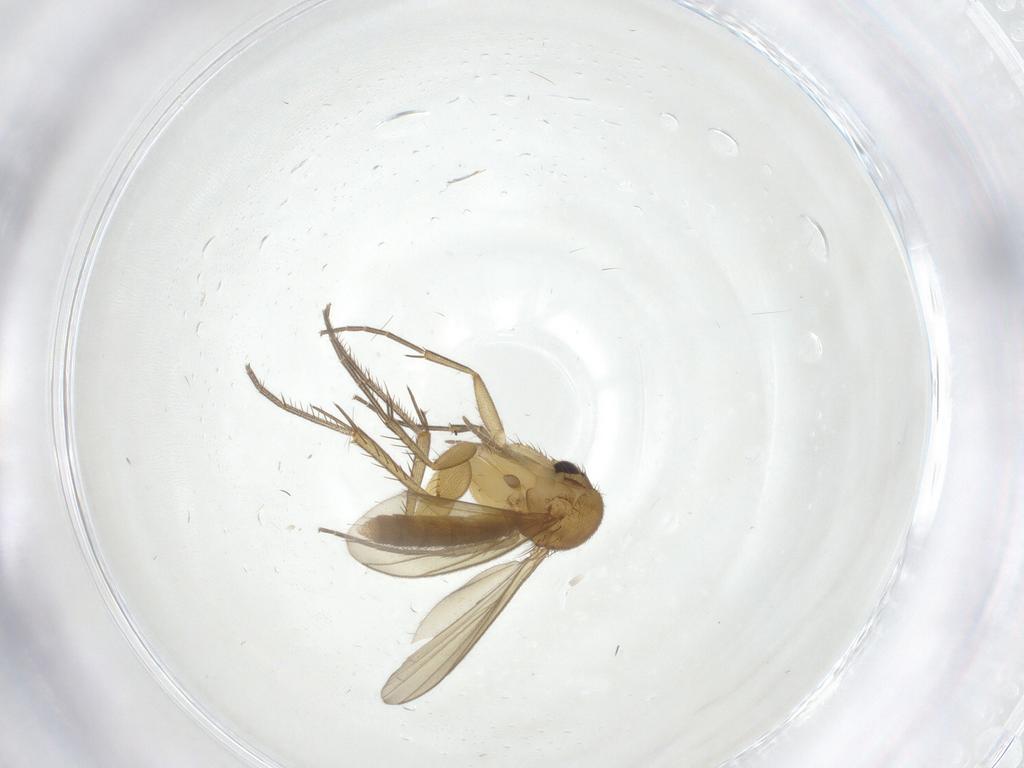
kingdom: Animalia
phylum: Arthropoda
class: Insecta
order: Diptera
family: Mycetophilidae
